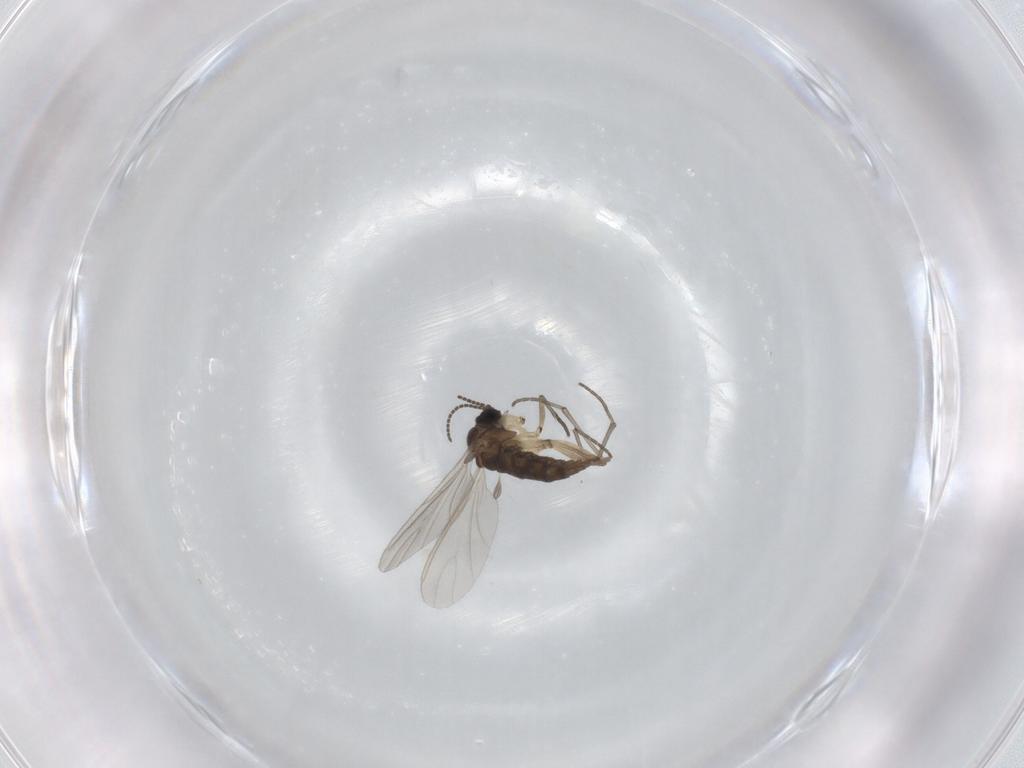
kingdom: Animalia
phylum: Arthropoda
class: Insecta
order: Diptera
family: Sciaridae
